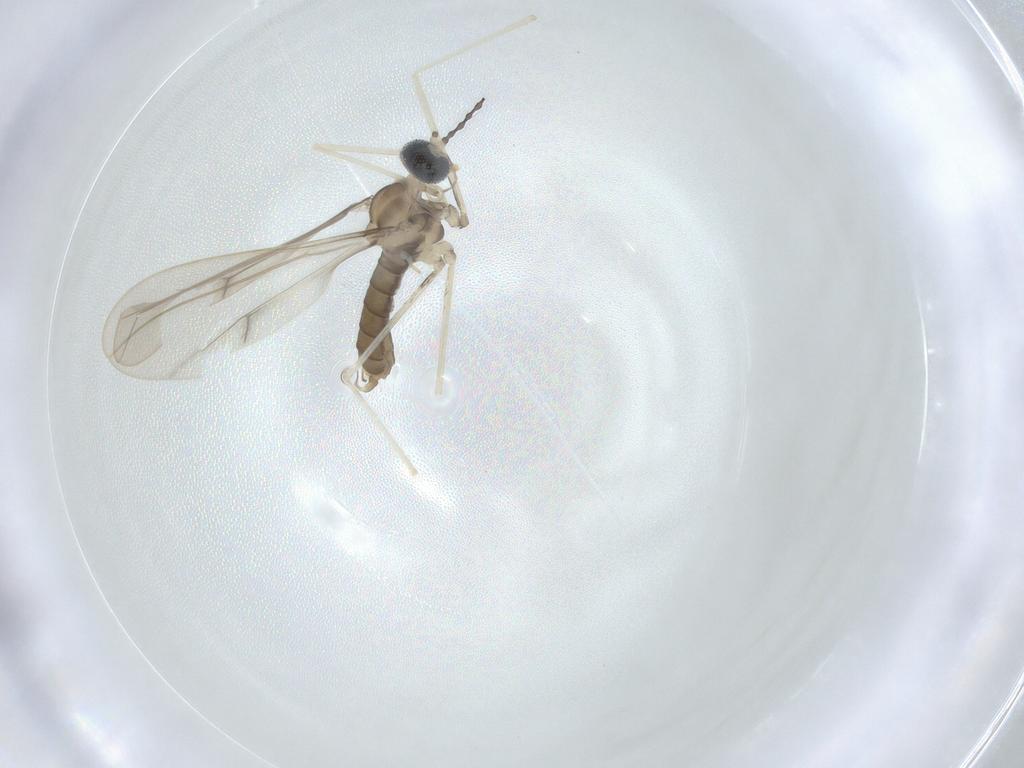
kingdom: Animalia
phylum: Arthropoda
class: Insecta
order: Diptera
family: Cecidomyiidae
